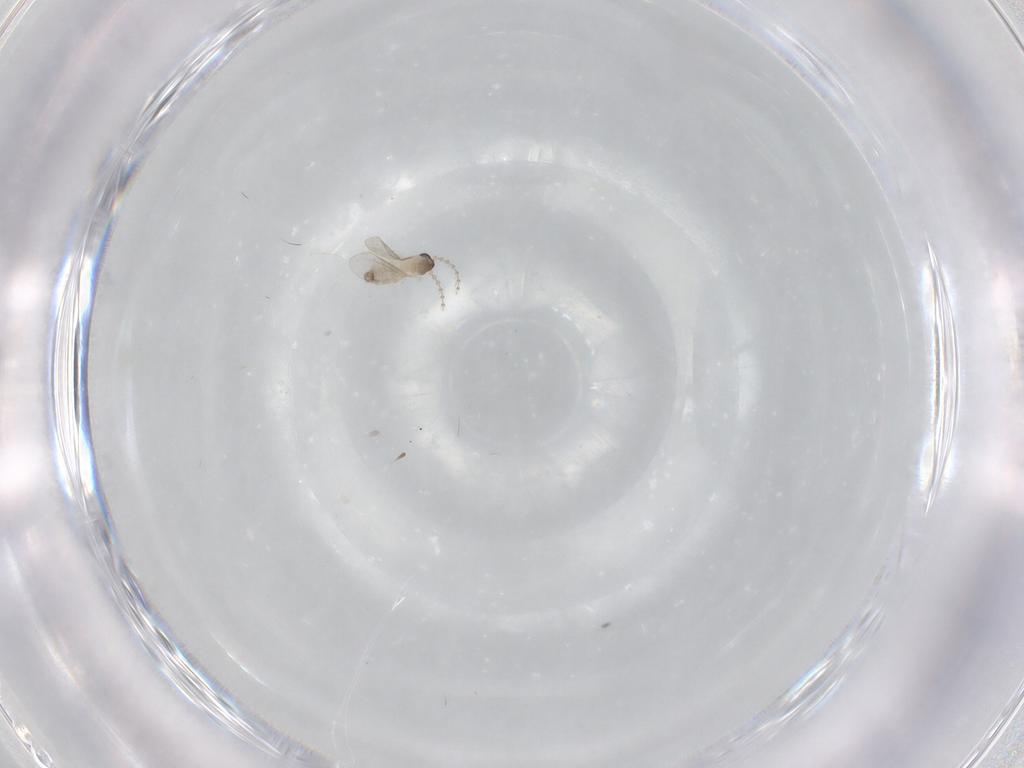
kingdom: Animalia
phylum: Arthropoda
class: Insecta
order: Diptera
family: Cecidomyiidae
